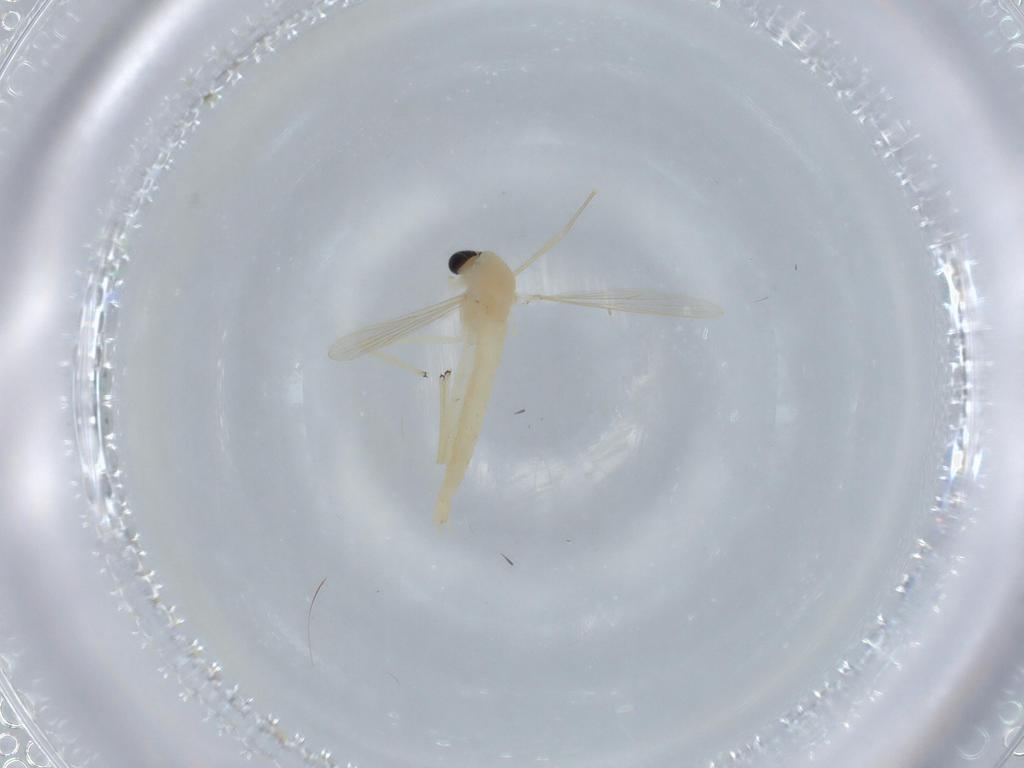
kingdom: Animalia
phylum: Arthropoda
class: Insecta
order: Diptera
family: Chironomidae
